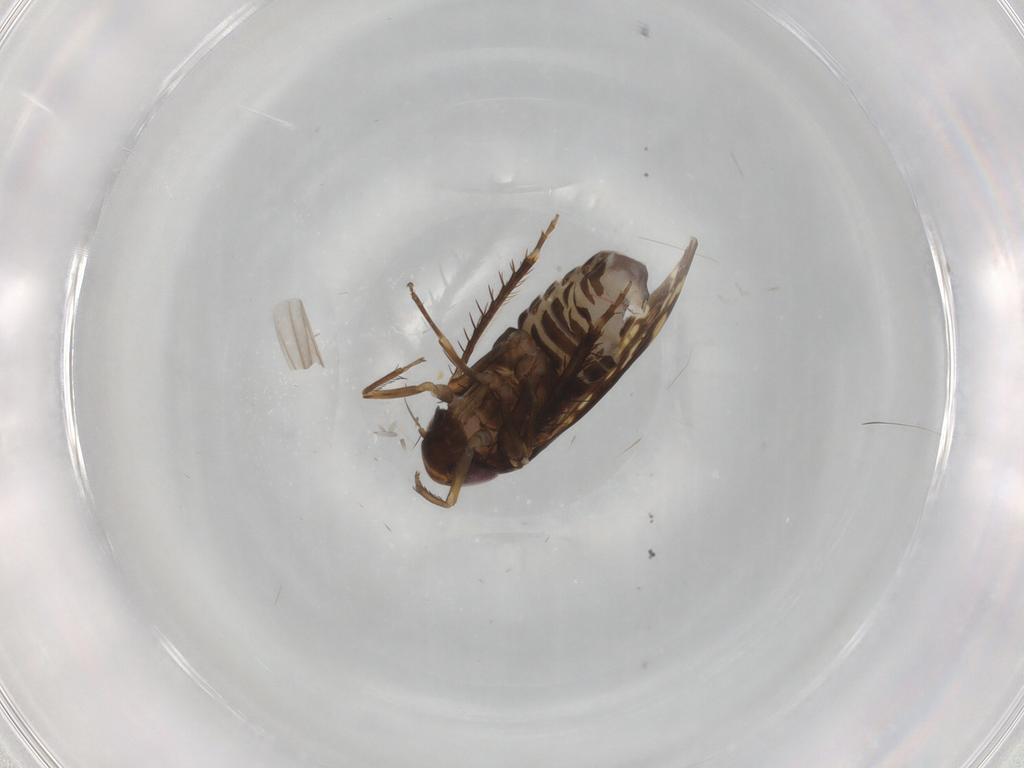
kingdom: Animalia
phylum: Arthropoda
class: Insecta
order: Hemiptera
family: Cicadellidae
